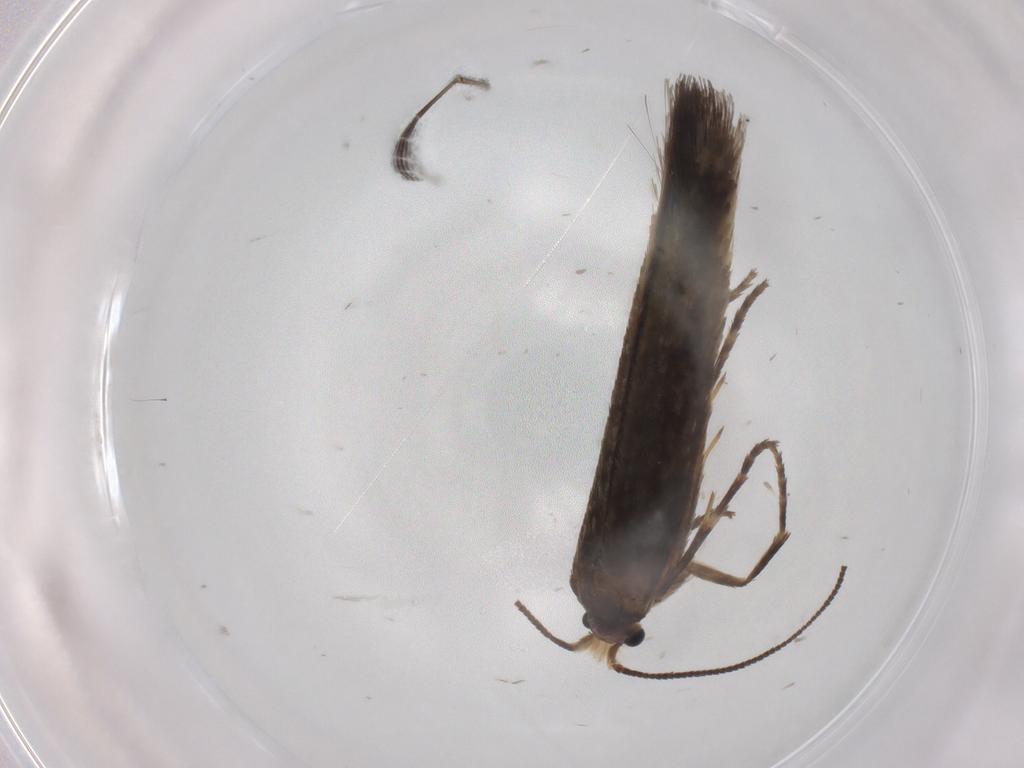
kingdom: Animalia
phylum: Arthropoda
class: Insecta
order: Lepidoptera
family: Nepticulidae
